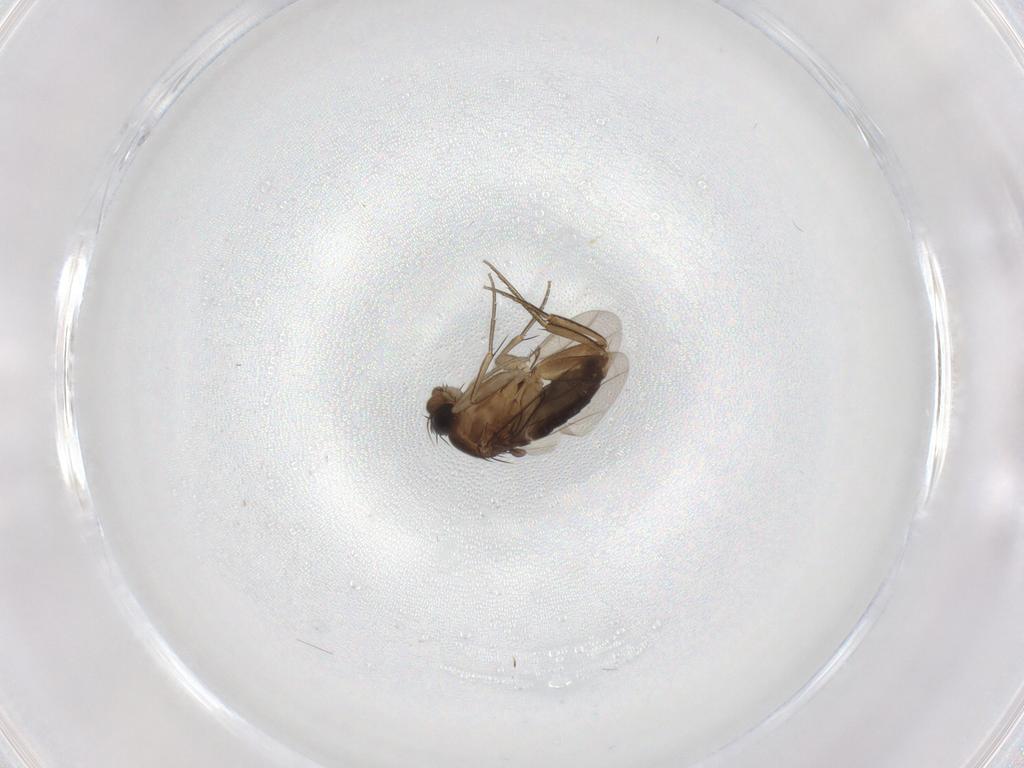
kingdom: Animalia
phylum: Arthropoda
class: Insecta
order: Diptera
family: Phoridae
